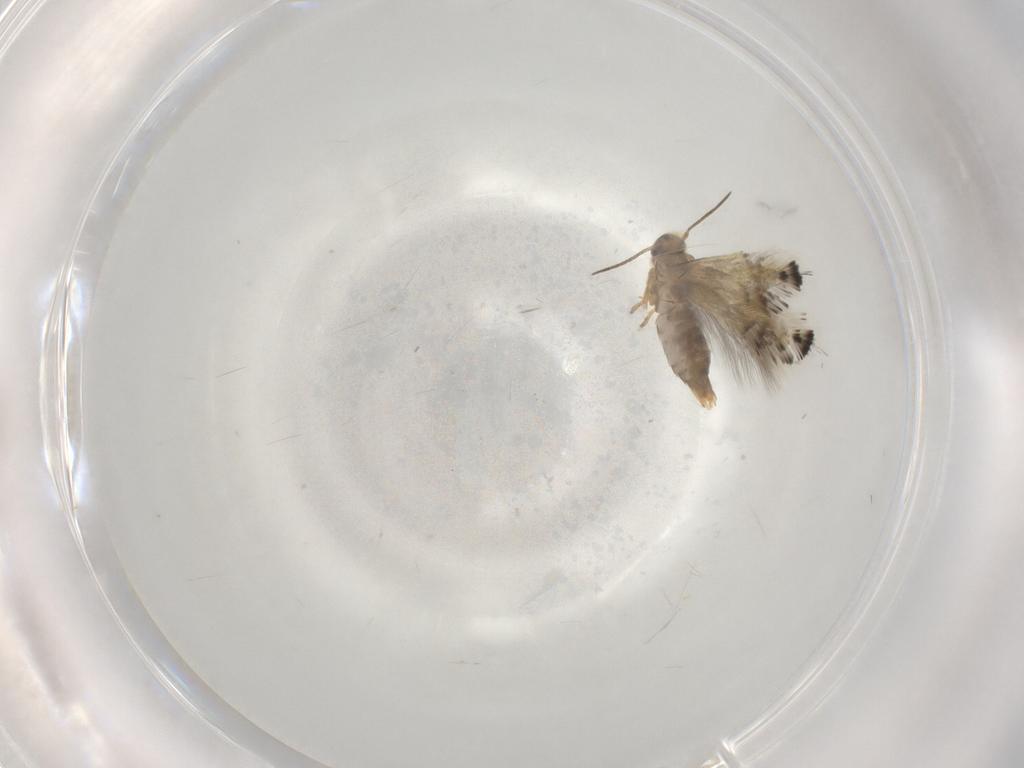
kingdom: Animalia
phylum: Arthropoda
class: Insecta
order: Lepidoptera
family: Heliozelidae
